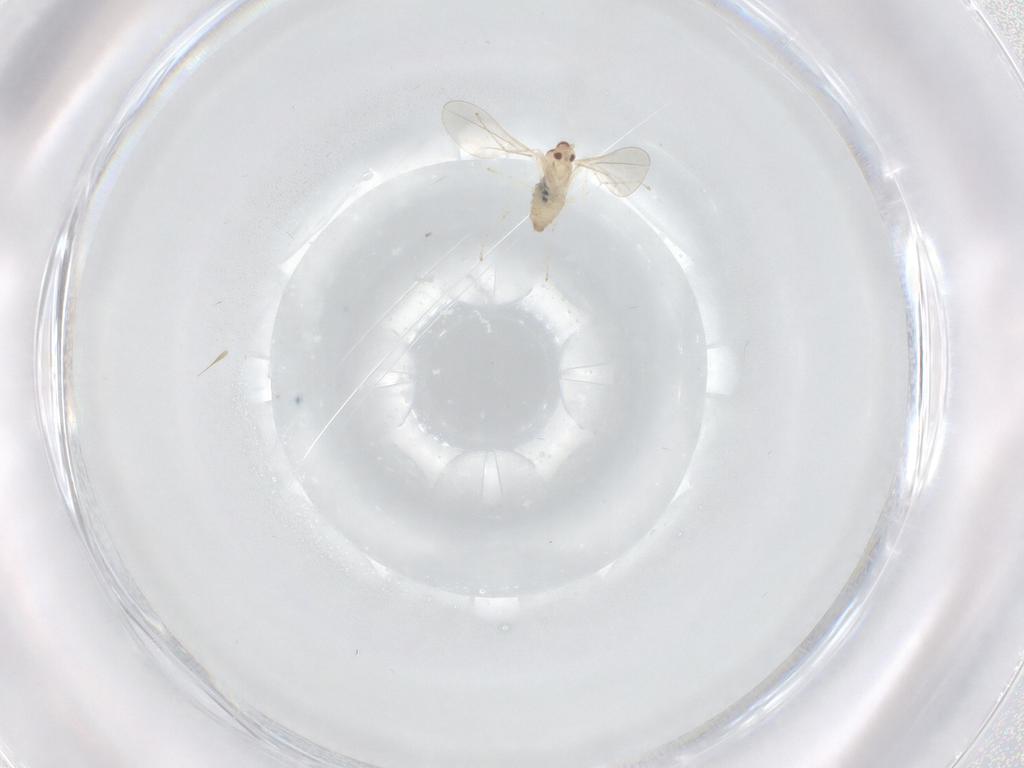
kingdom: Animalia
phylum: Arthropoda
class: Insecta
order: Diptera
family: Cecidomyiidae
